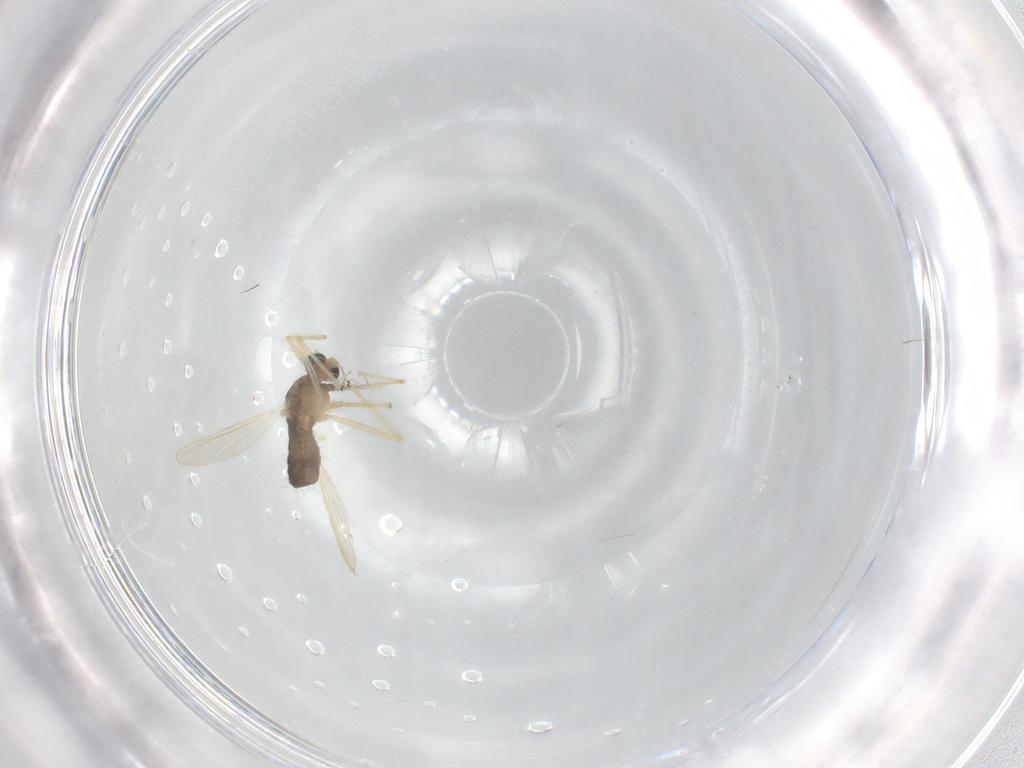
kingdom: Animalia
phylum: Arthropoda
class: Insecta
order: Diptera
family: Chironomidae
